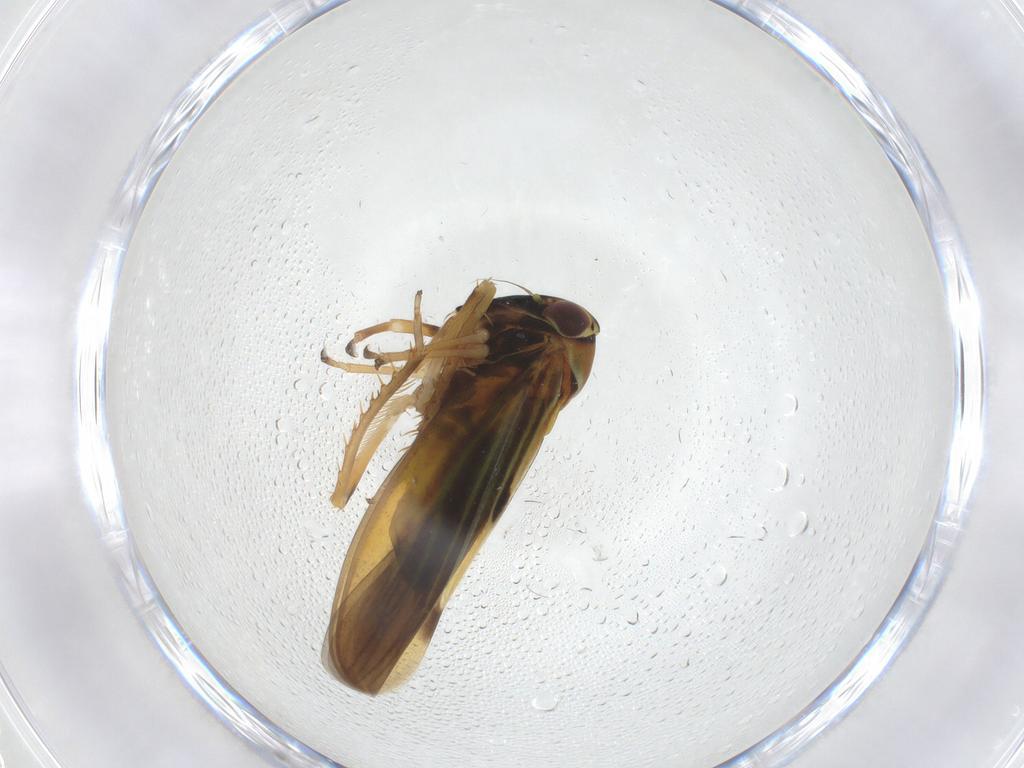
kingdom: Animalia
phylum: Arthropoda
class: Insecta
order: Hemiptera
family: Cicadellidae
